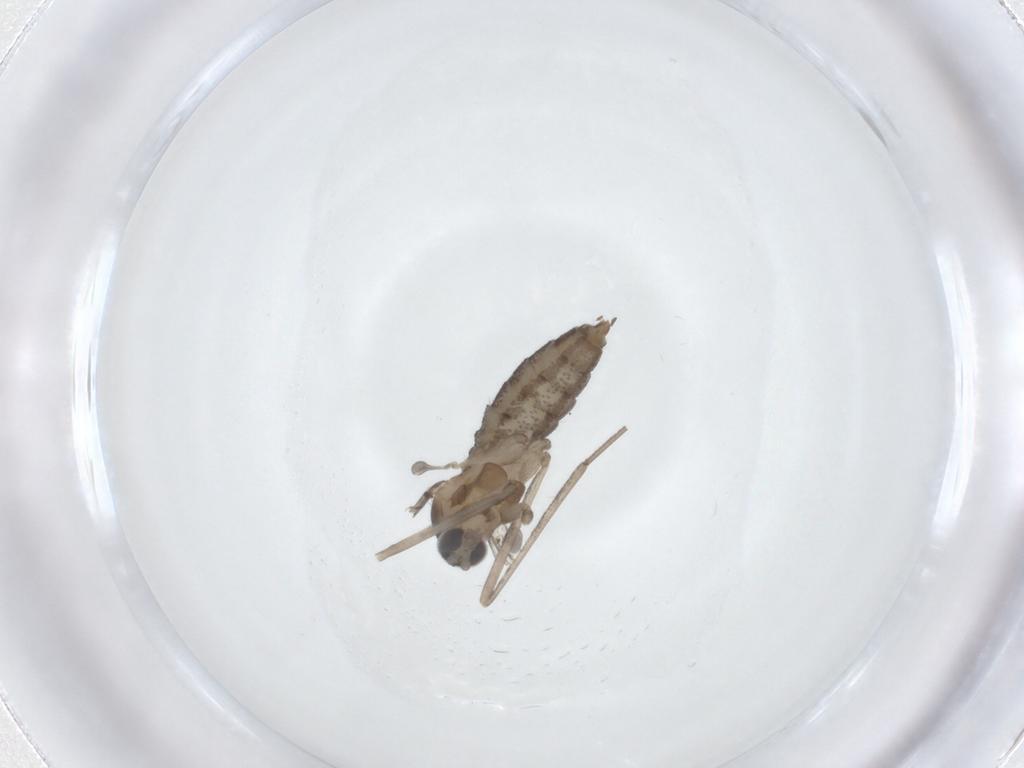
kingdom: Animalia
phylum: Arthropoda
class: Insecta
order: Diptera
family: Cecidomyiidae
